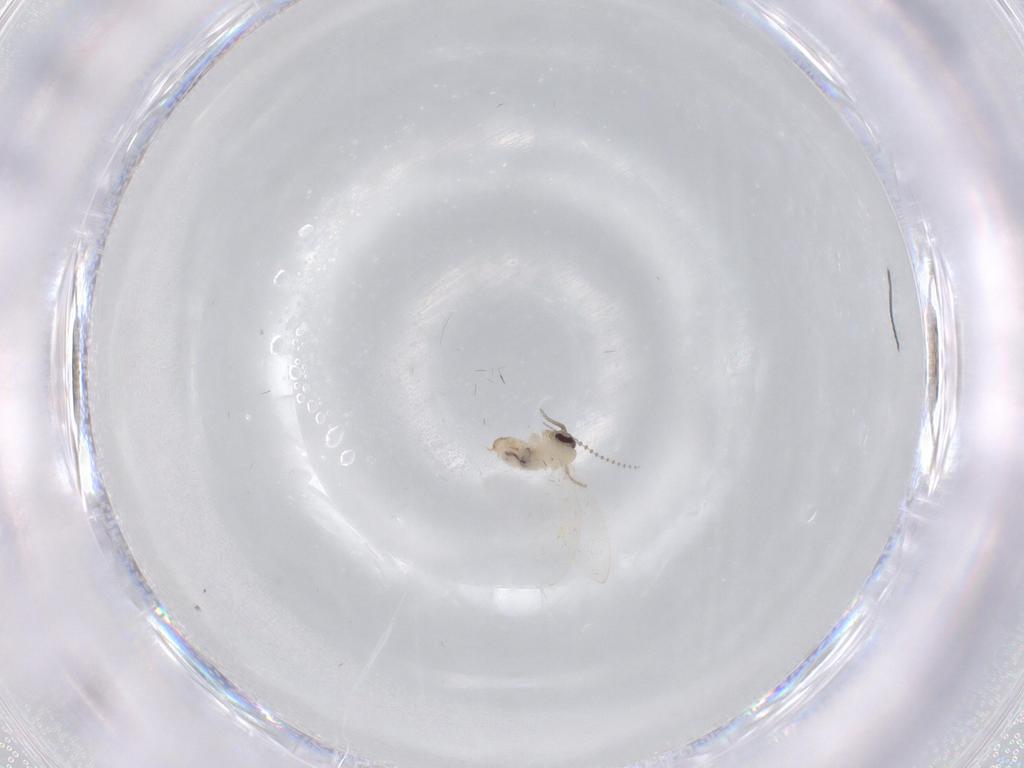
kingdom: Animalia
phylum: Arthropoda
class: Insecta
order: Diptera
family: Psychodidae
